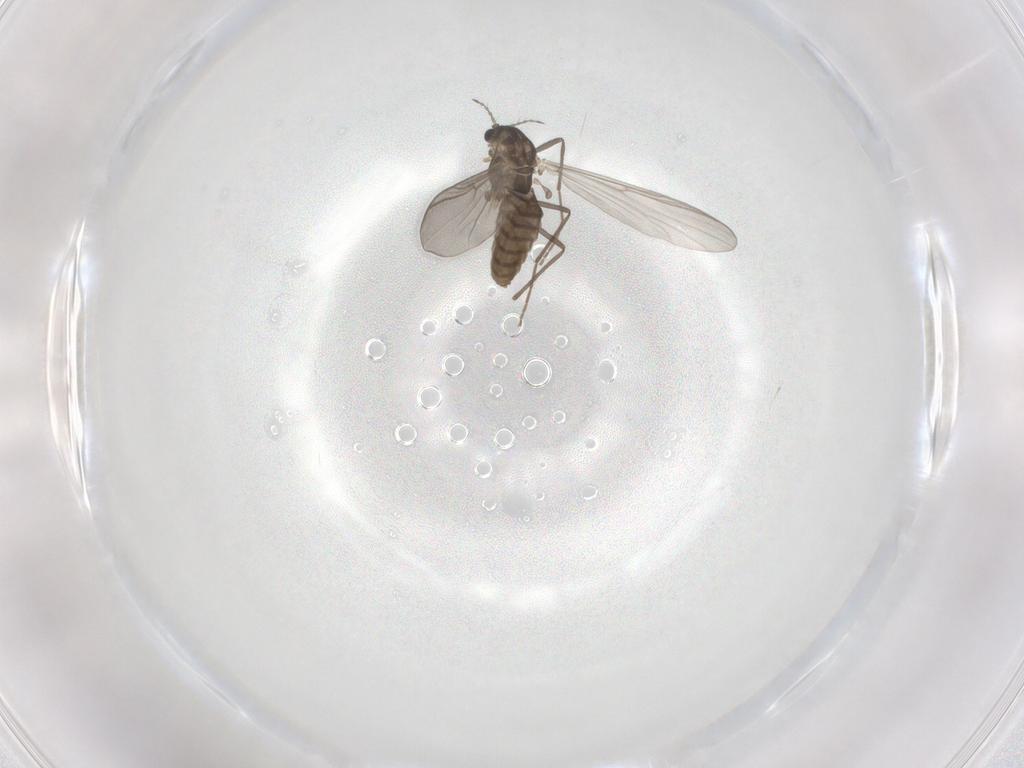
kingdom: Animalia
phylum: Arthropoda
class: Insecta
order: Diptera
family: Chironomidae
